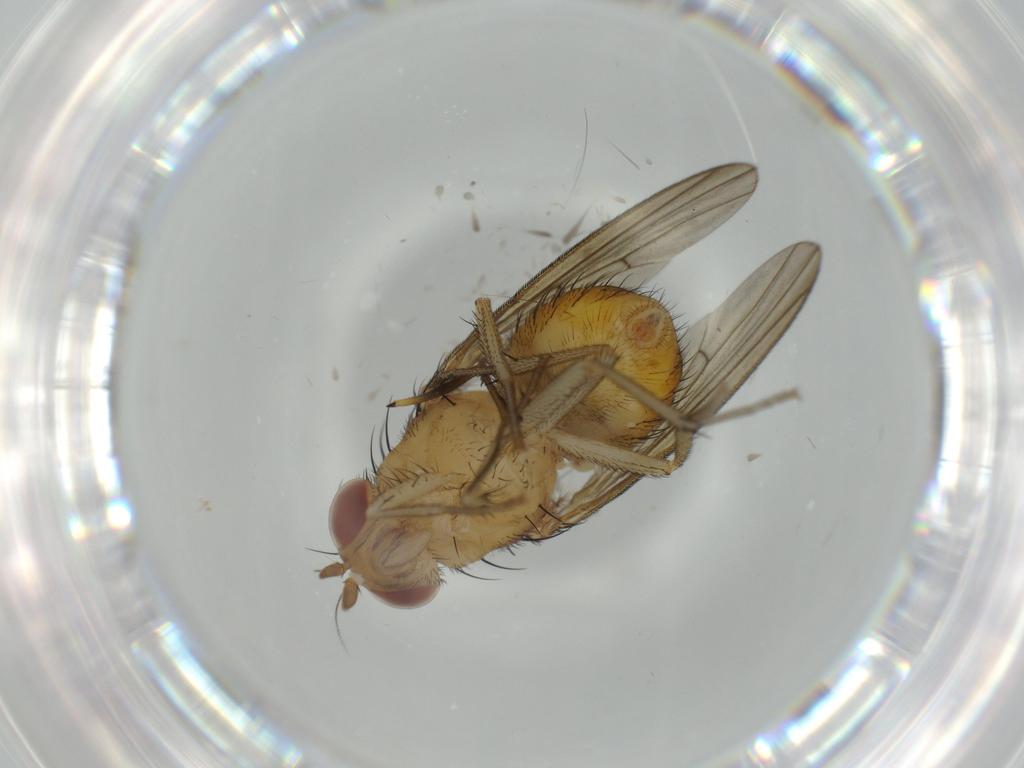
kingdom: Animalia
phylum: Arthropoda
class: Insecta
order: Diptera
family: Chironomidae
